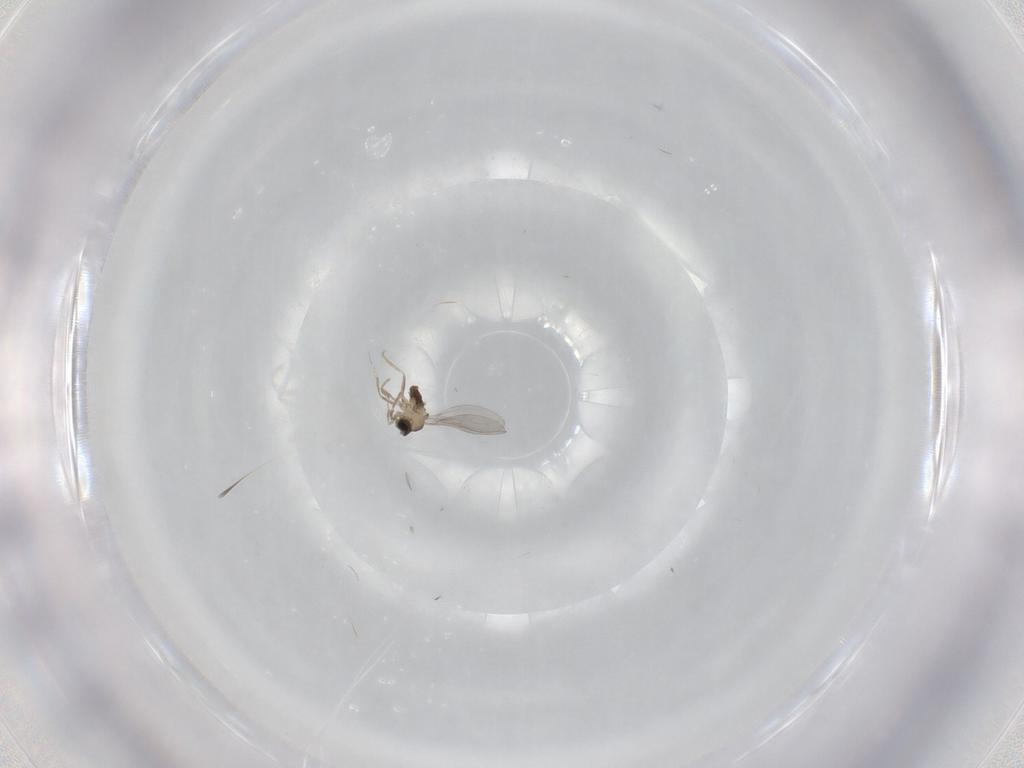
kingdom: Animalia
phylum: Arthropoda
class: Insecta
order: Diptera
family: Cecidomyiidae
